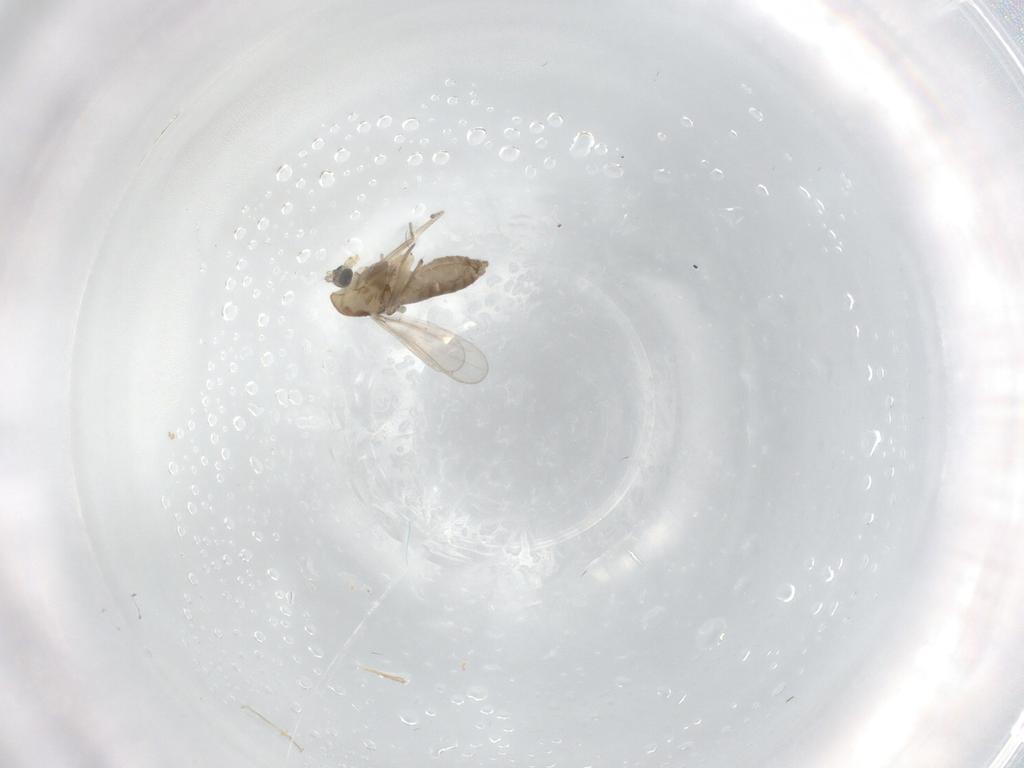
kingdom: Animalia
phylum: Arthropoda
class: Insecta
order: Diptera
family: Chironomidae
